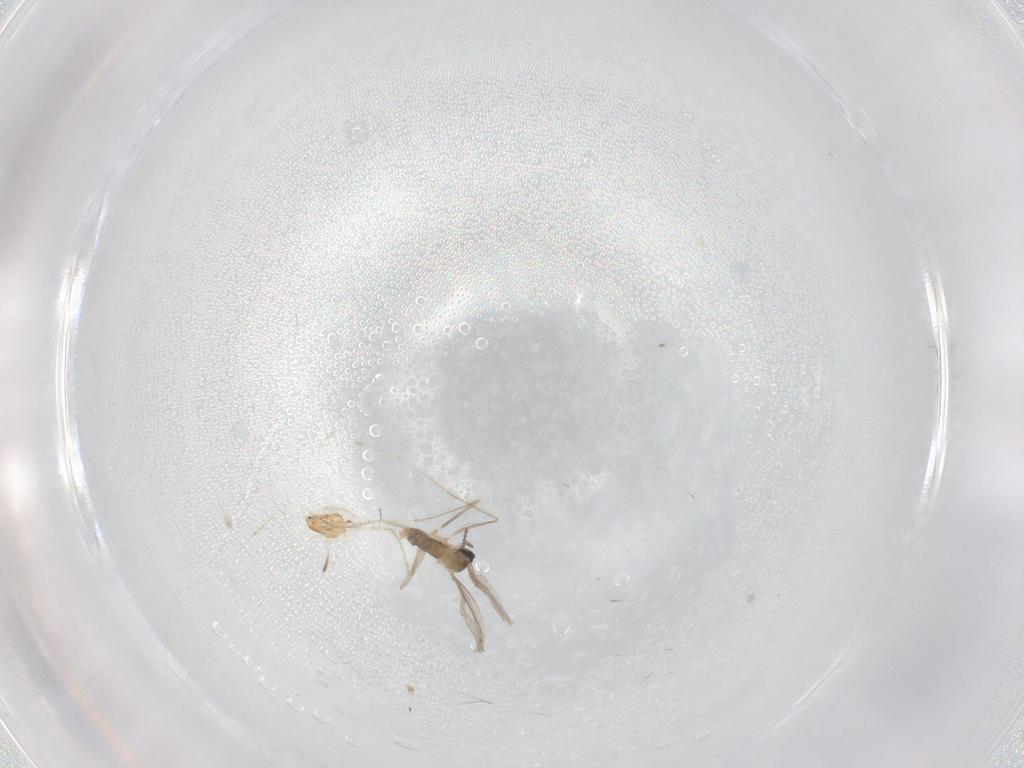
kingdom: Animalia
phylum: Arthropoda
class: Insecta
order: Diptera
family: Cecidomyiidae
